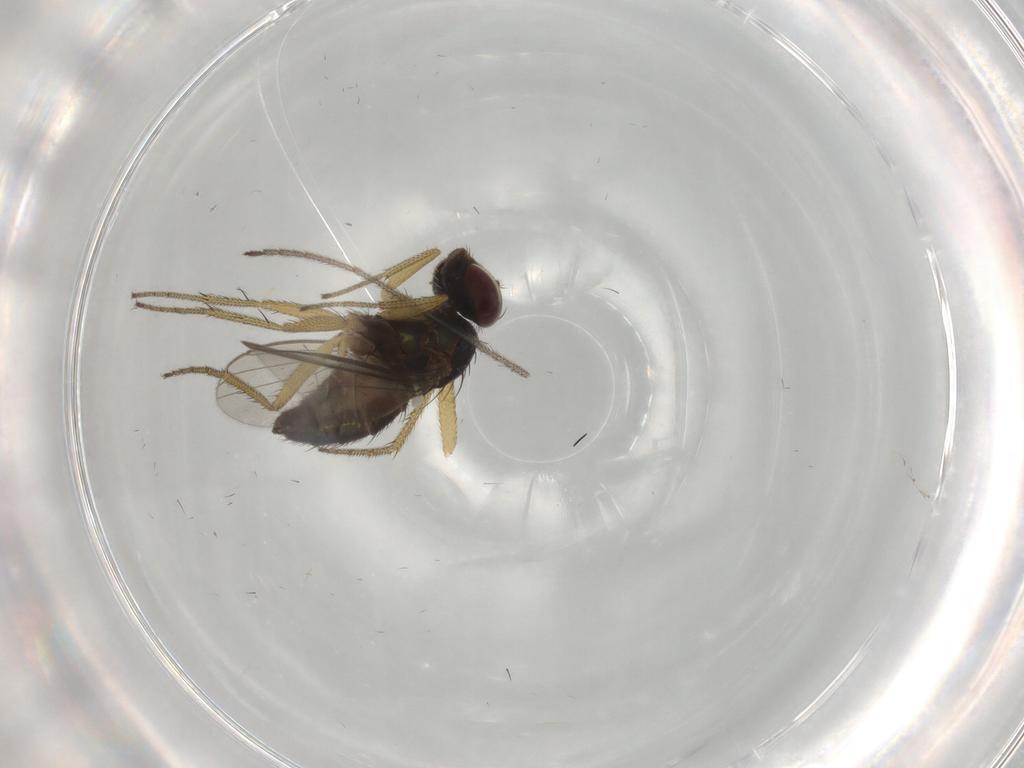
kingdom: Animalia
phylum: Arthropoda
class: Insecta
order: Diptera
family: Dolichopodidae
